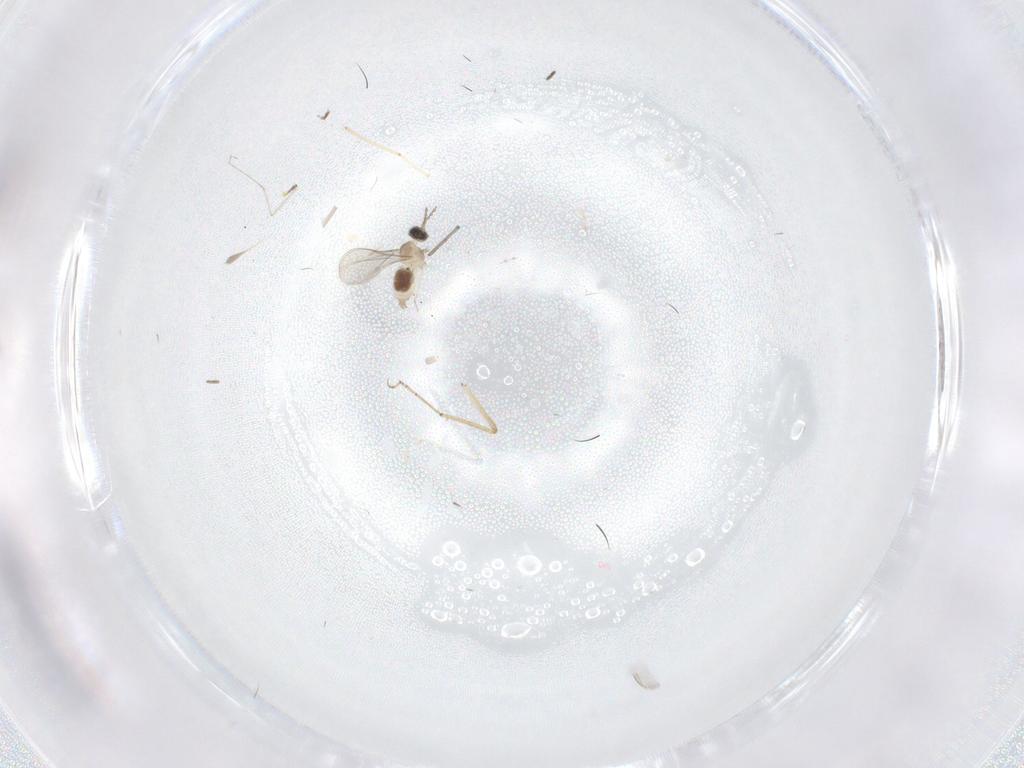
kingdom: Animalia
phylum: Arthropoda
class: Insecta
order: Diptera
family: Cecidomyiidae
